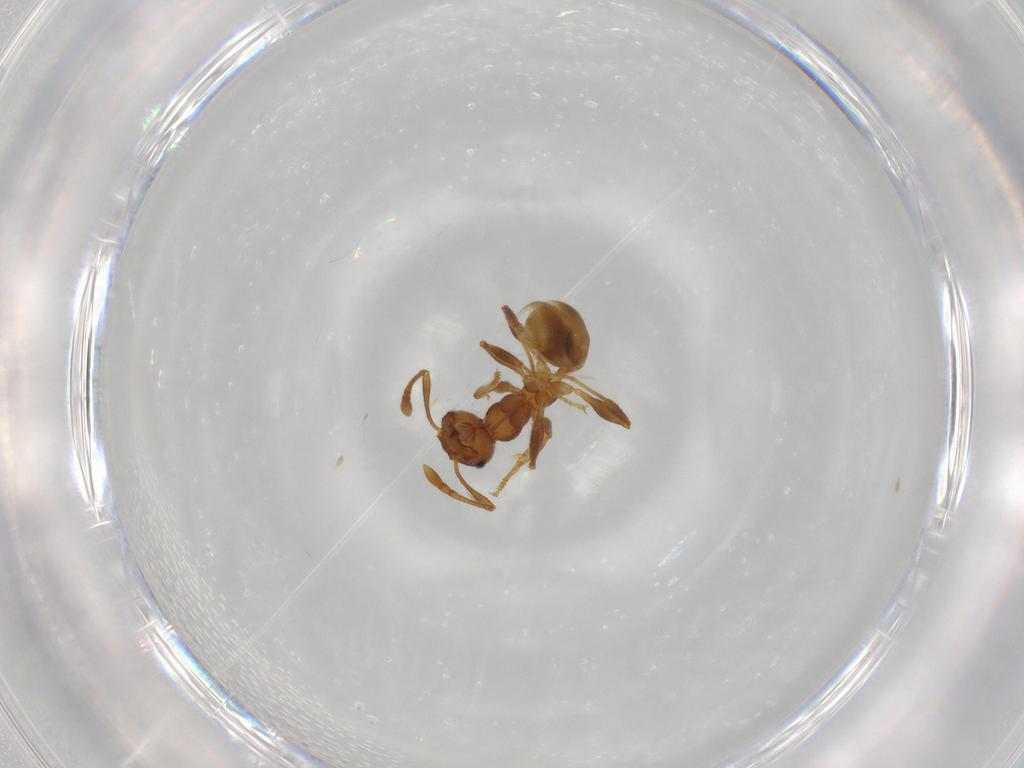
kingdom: Animalia
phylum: Arthropoda
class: Insecta
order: Hymenoptera
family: Formicidae
